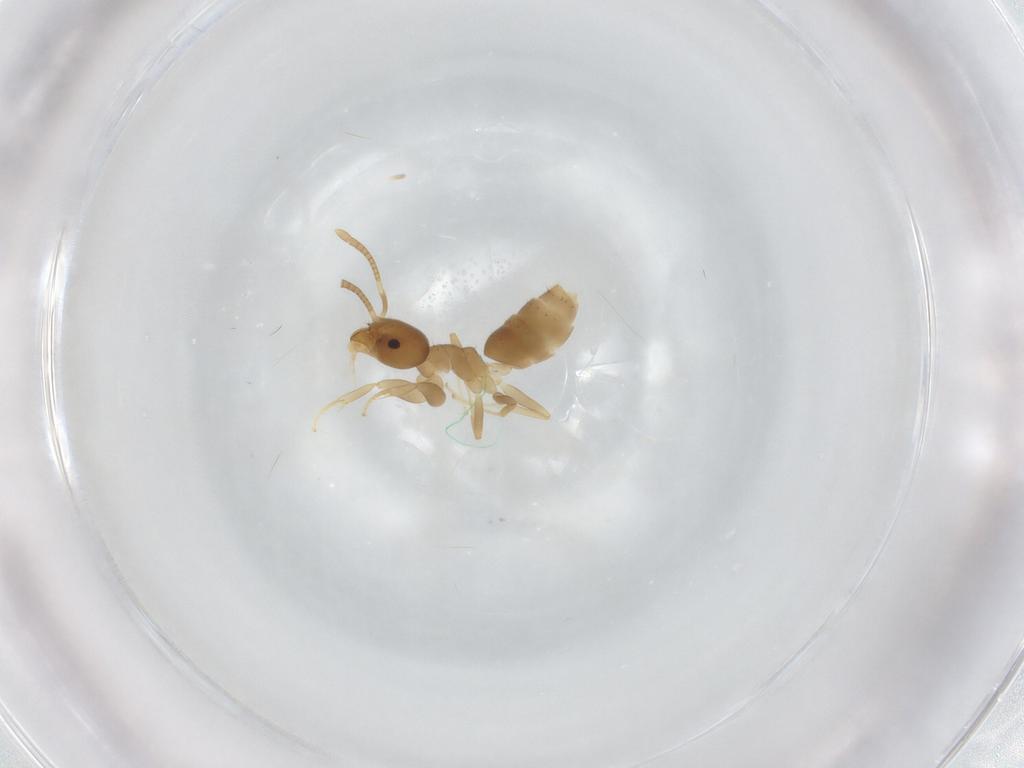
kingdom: Animalia
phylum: Arthropoda
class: Insecta
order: Hymenoptera
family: Formicidae
